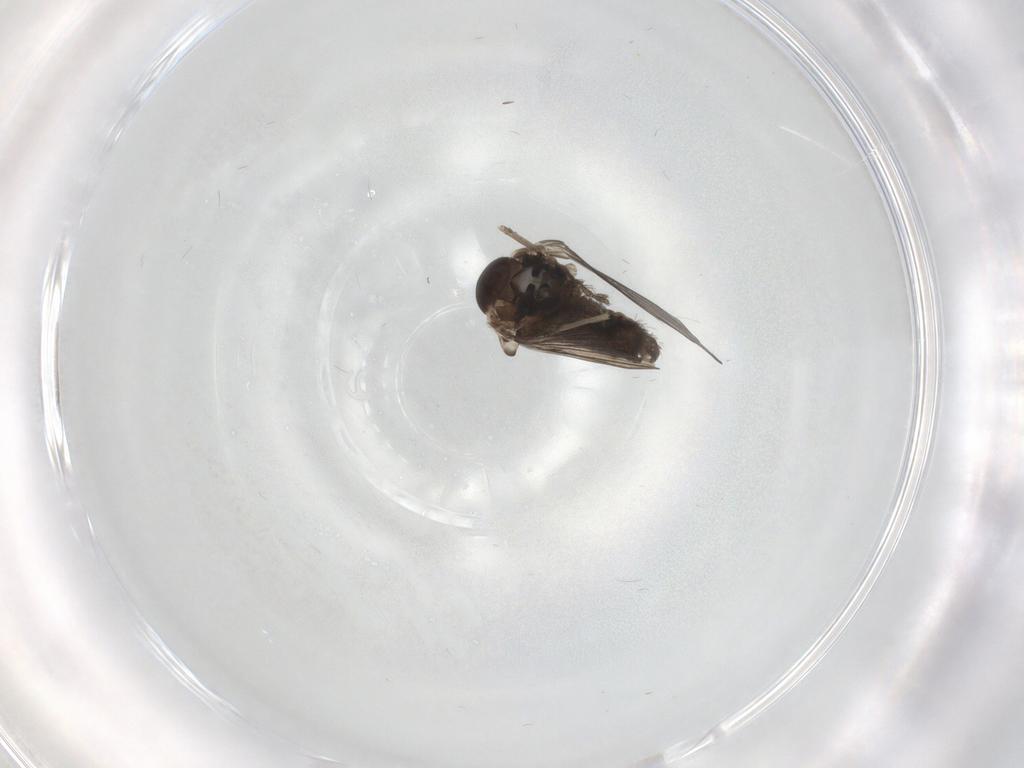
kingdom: Animalia
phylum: Arthropoda
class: Insecta
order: Diptera
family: Psychodidae
